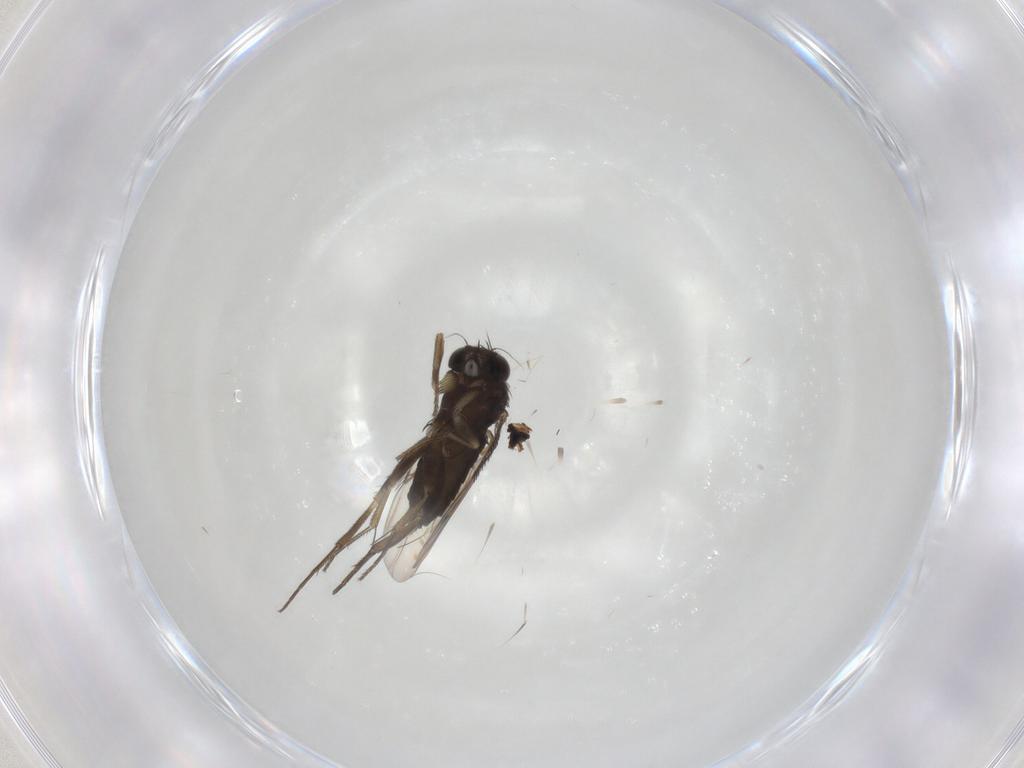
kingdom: Animalia
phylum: Arthropoda
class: Insecta
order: Diptera
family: Phoridae
